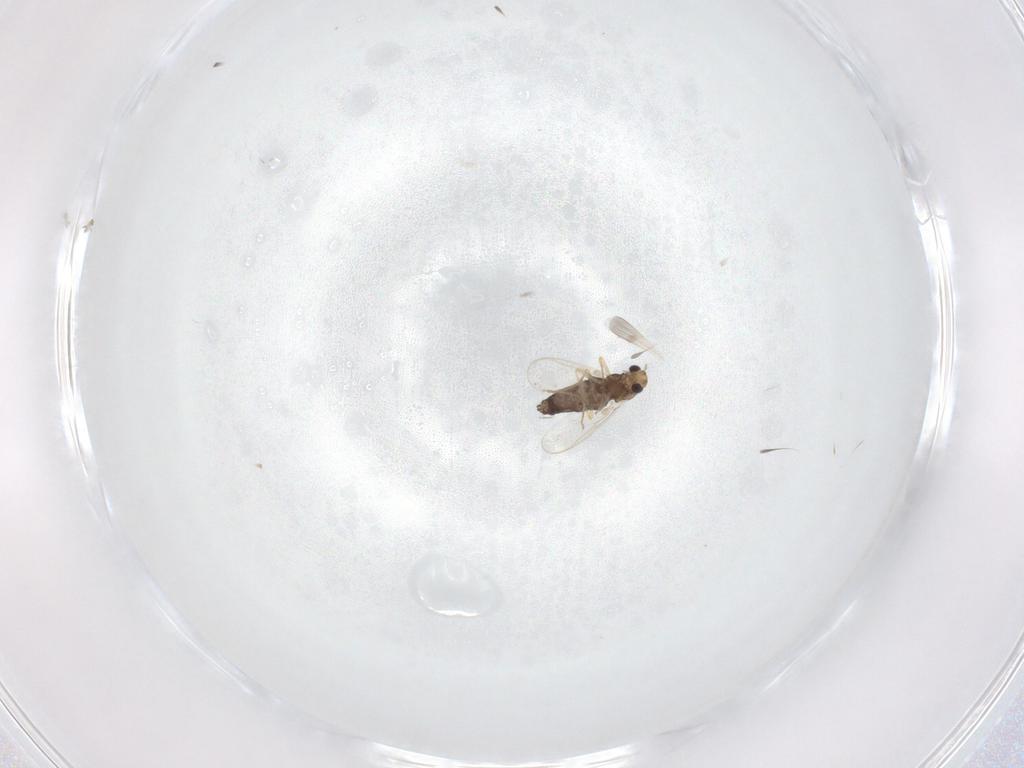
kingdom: Animalia
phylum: Arthropoda
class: Insecta
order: Diptera
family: Chironomidae
